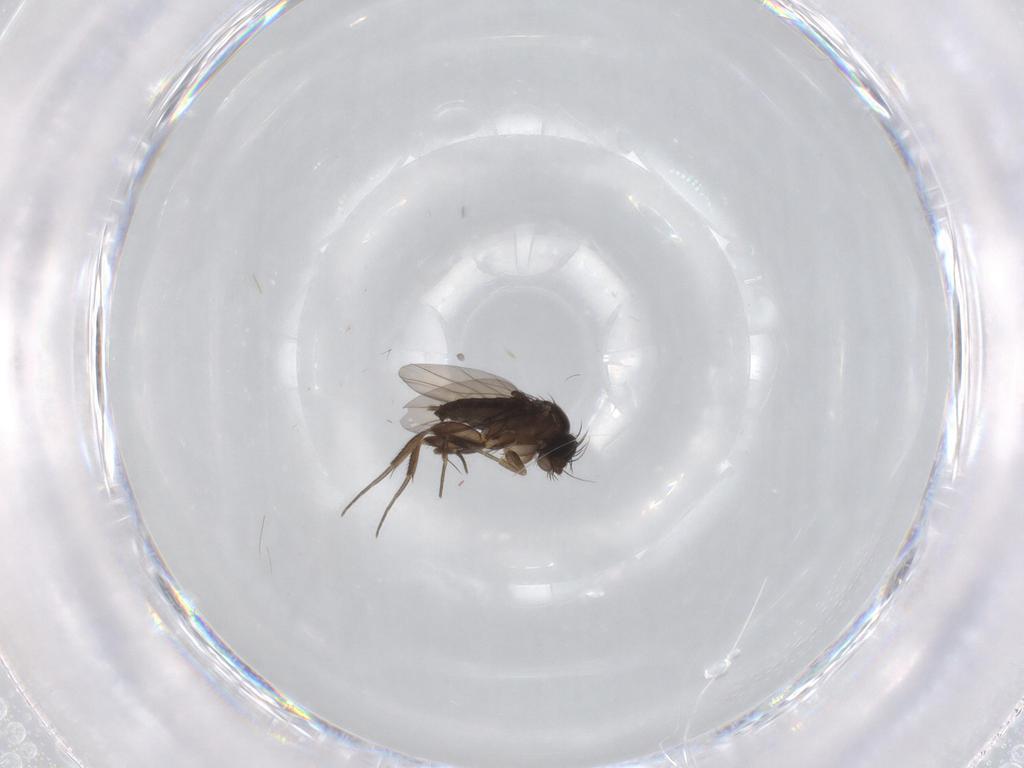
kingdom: Animalia
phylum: Arthropoda
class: Insecta
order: Diptera
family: Phoridae
